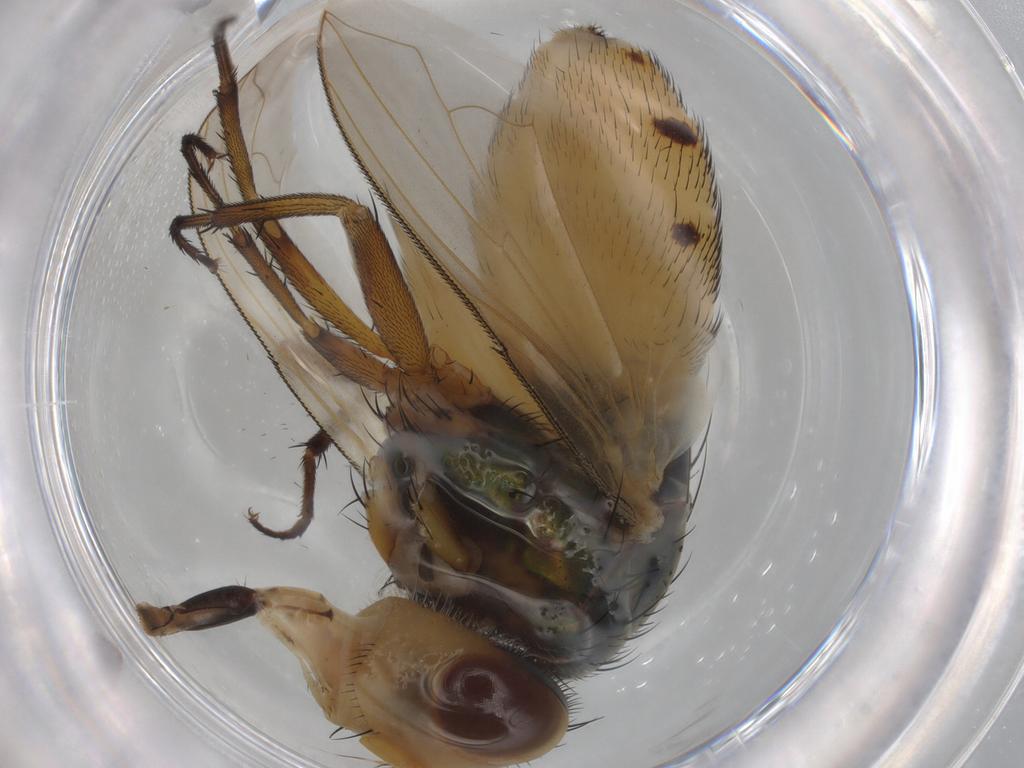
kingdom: Animalia
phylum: Arthropoda
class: Insecta
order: Diptera
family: Calliphoridae
